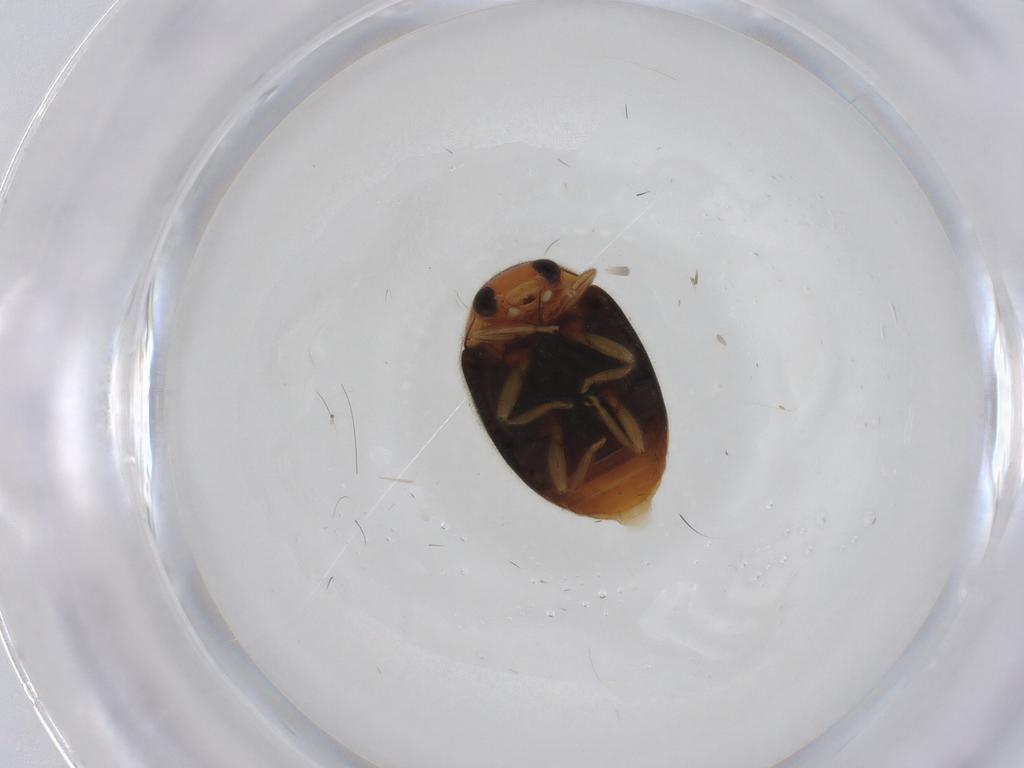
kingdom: Animalia
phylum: Arthropoda
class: Insecta
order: Coleoptera
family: Coccinellidae
